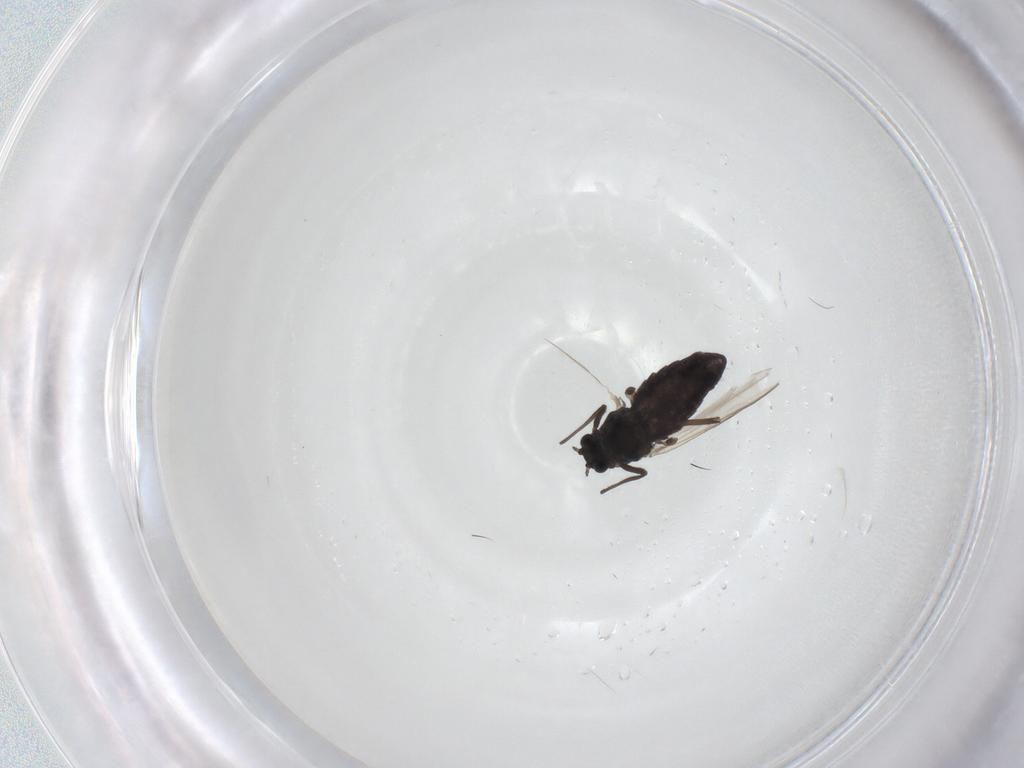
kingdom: Animalia
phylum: Arthropoda
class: Insecta
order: Diptera
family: Chironomidae
